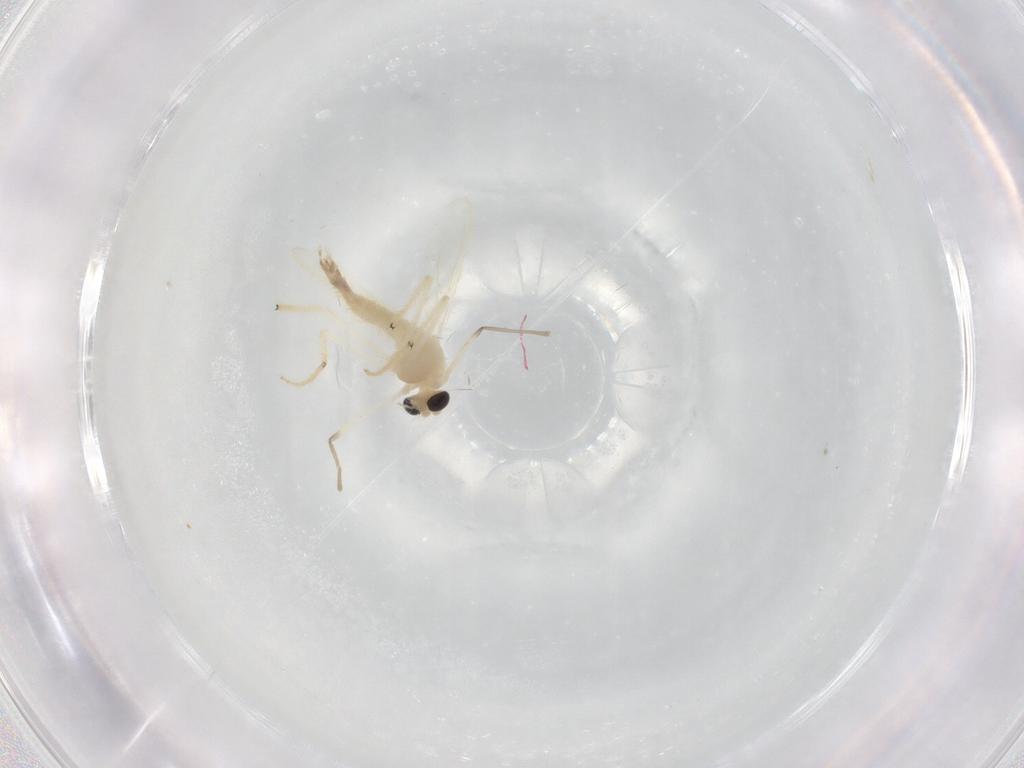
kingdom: Animalia
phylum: Arthropoda
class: Insecta
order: Diptera
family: Chironomidae
